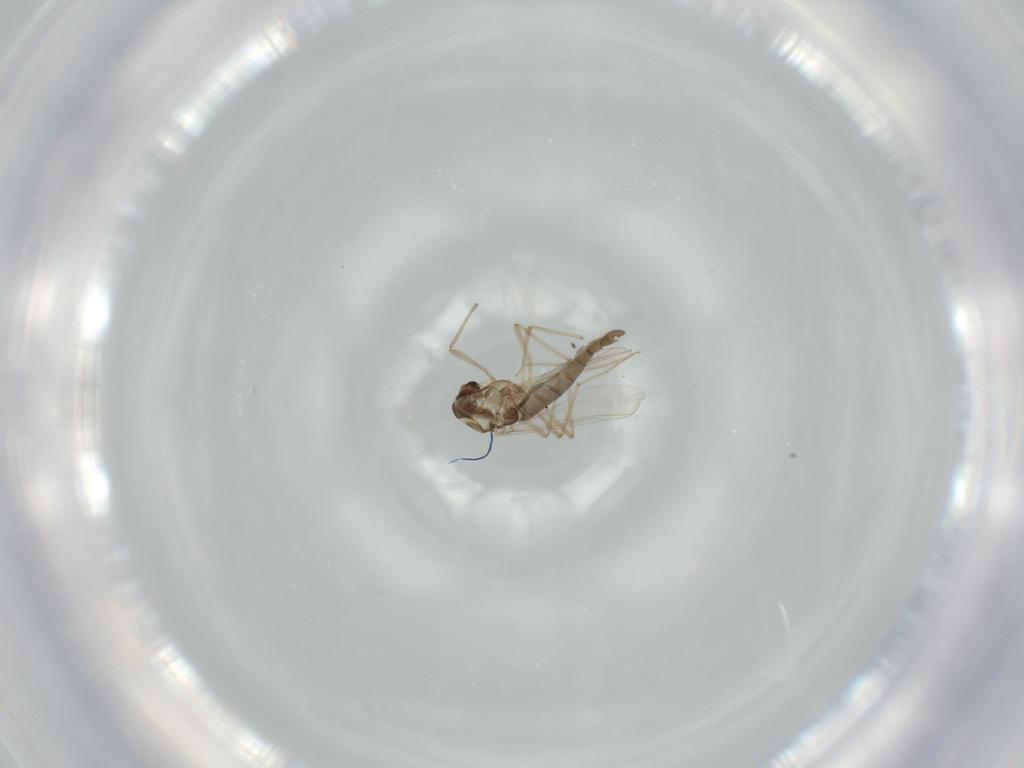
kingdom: Animalia
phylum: Arthropoda
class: Insecta
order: Diptera
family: Chironomidae
